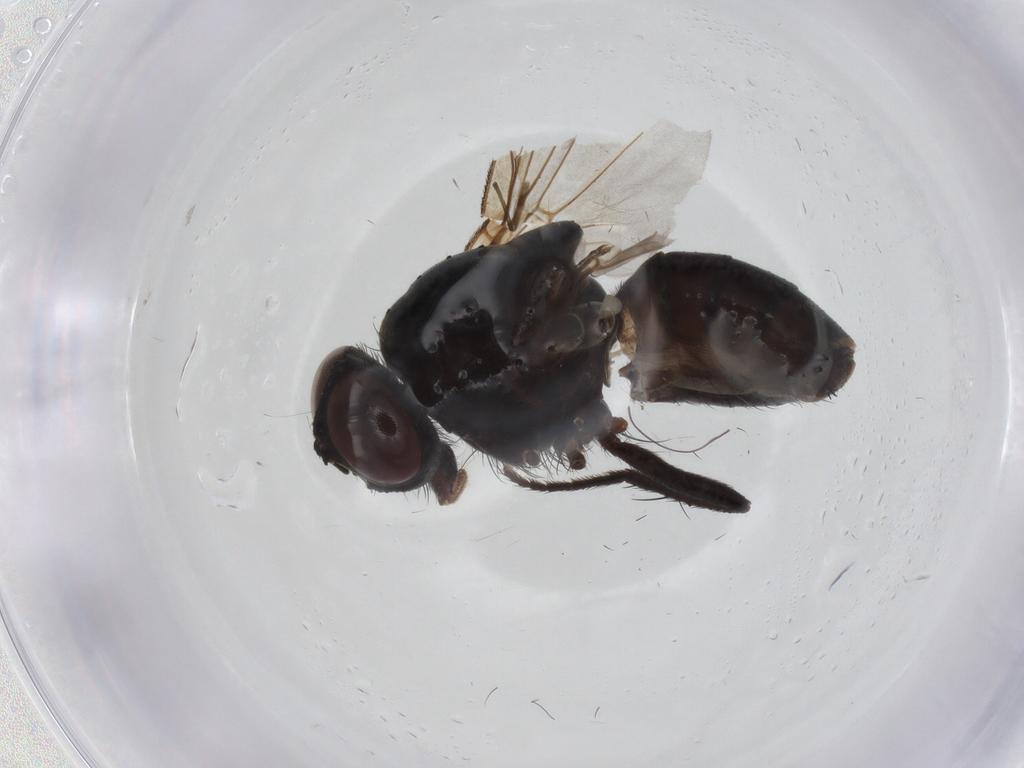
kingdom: Animalia
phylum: Arthropoda
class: Insecta
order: Diptera
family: Muscidae
